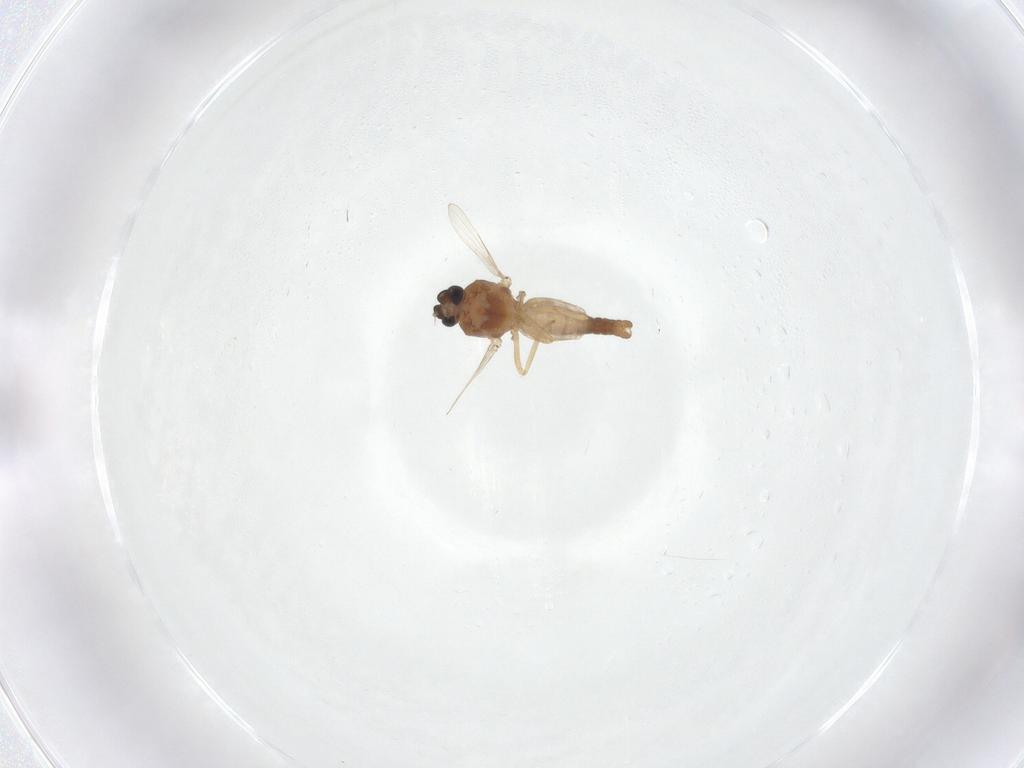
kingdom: Animalia
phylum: Arthropoda
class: Insecta
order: Diptera
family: Ceratopogonidae
